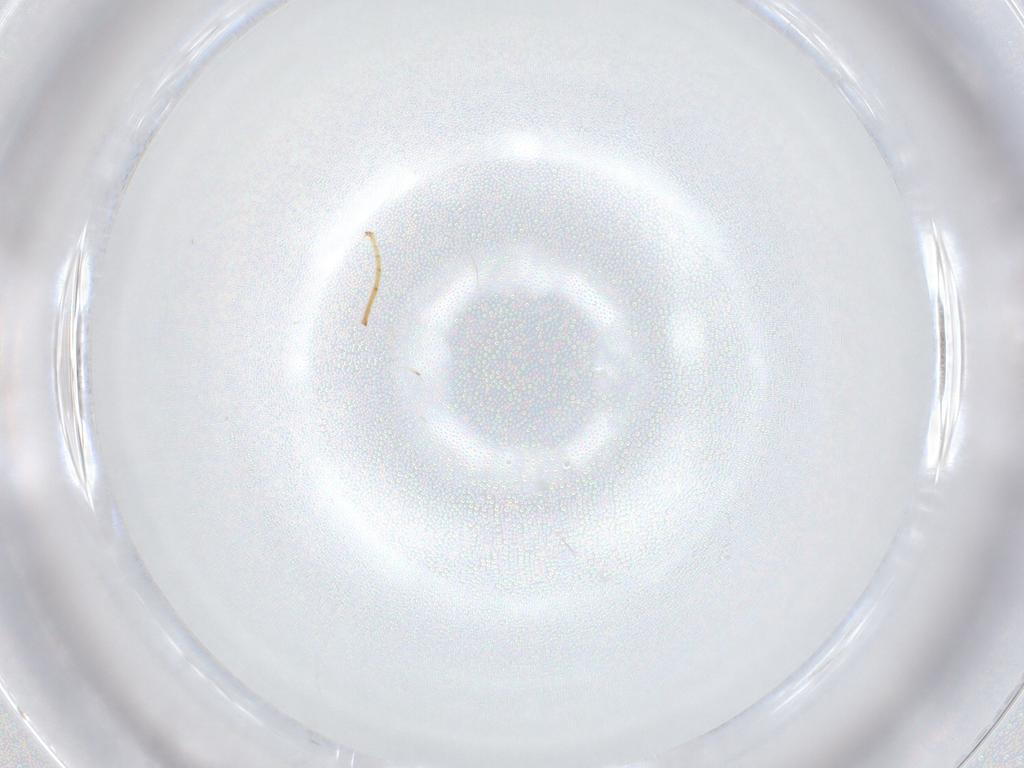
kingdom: Animalia
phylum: Arthropoda
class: Insecta
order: Diptera
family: Cecidomyiidae
